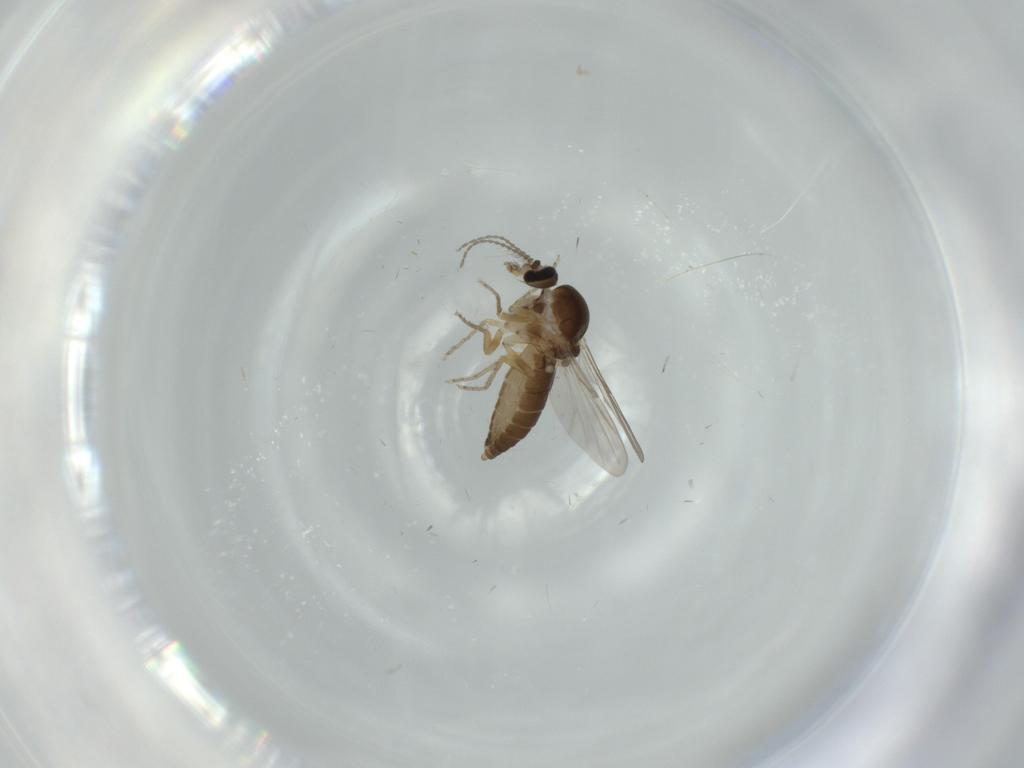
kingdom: Animalia
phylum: Arthropoda
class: Insecta
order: Diptera
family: Ceratopogonidae
